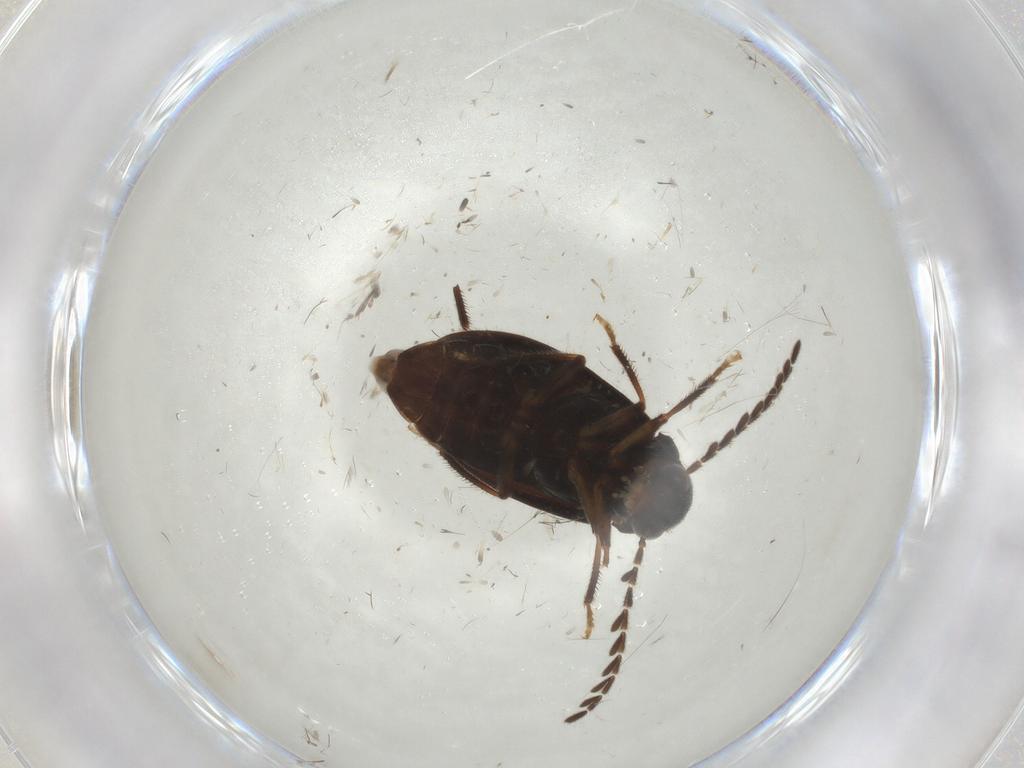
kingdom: Animalia
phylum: Arthropoda
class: Insecta
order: Coleoptera
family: Ptilodactylidae
